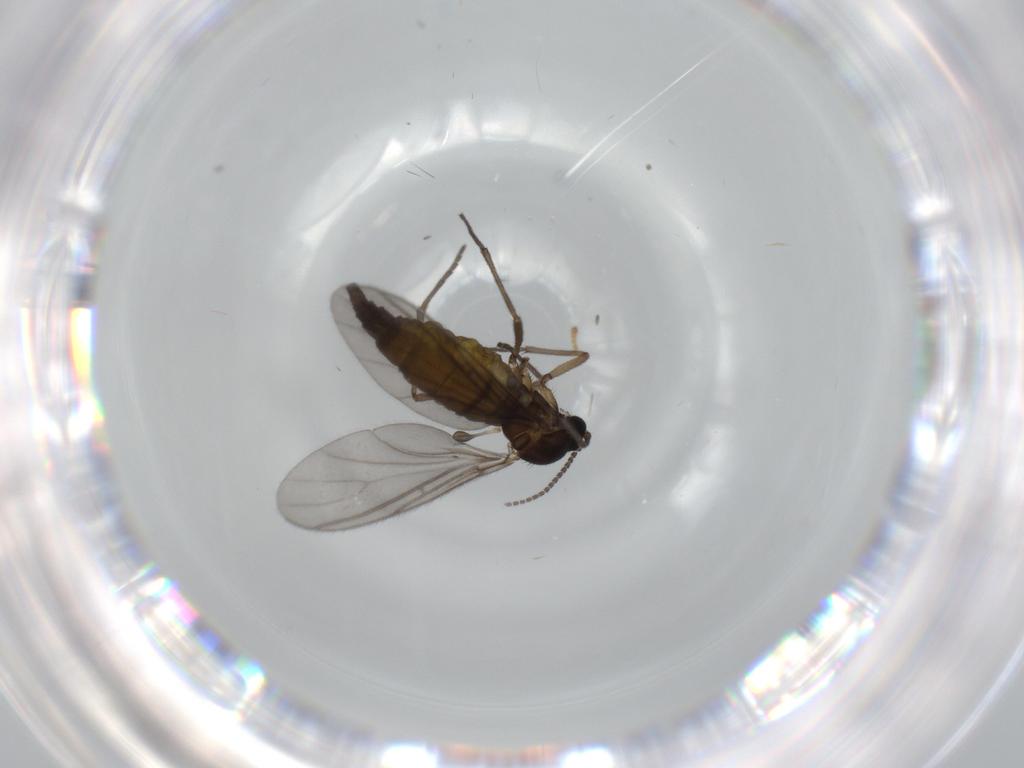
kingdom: Animalia
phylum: Arthropoda
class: Insecta
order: Diptera
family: Sciaridae
